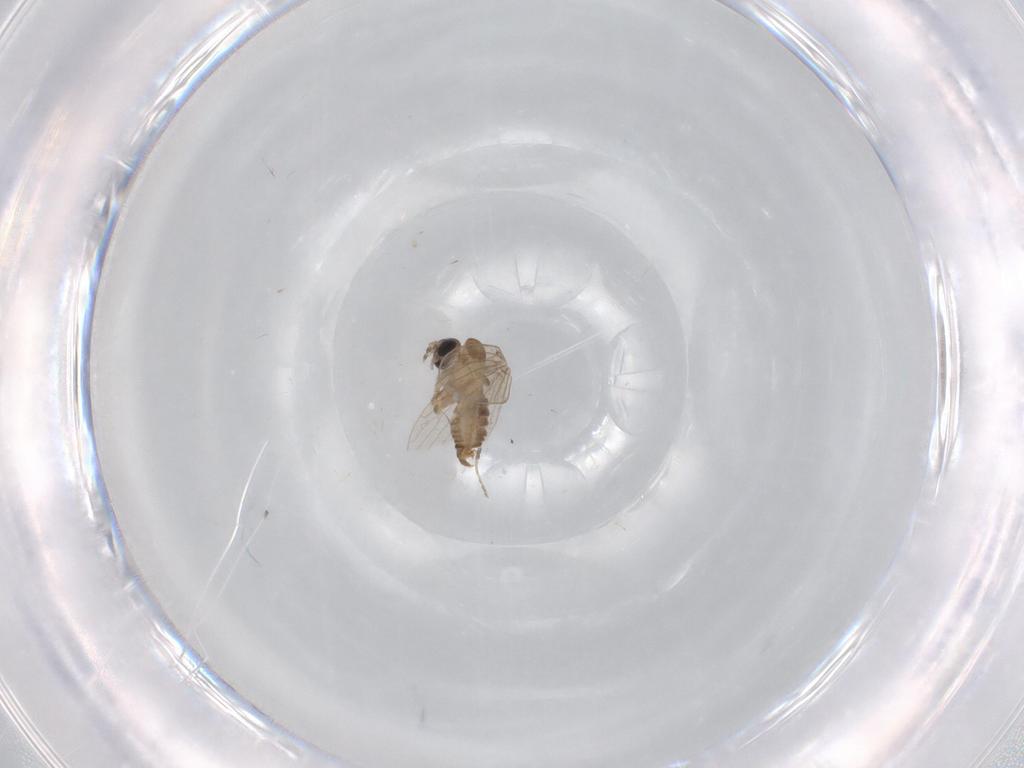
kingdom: Animalia
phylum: Arthropoda
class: Insecta
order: Diptera
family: Cecidomyiidae
